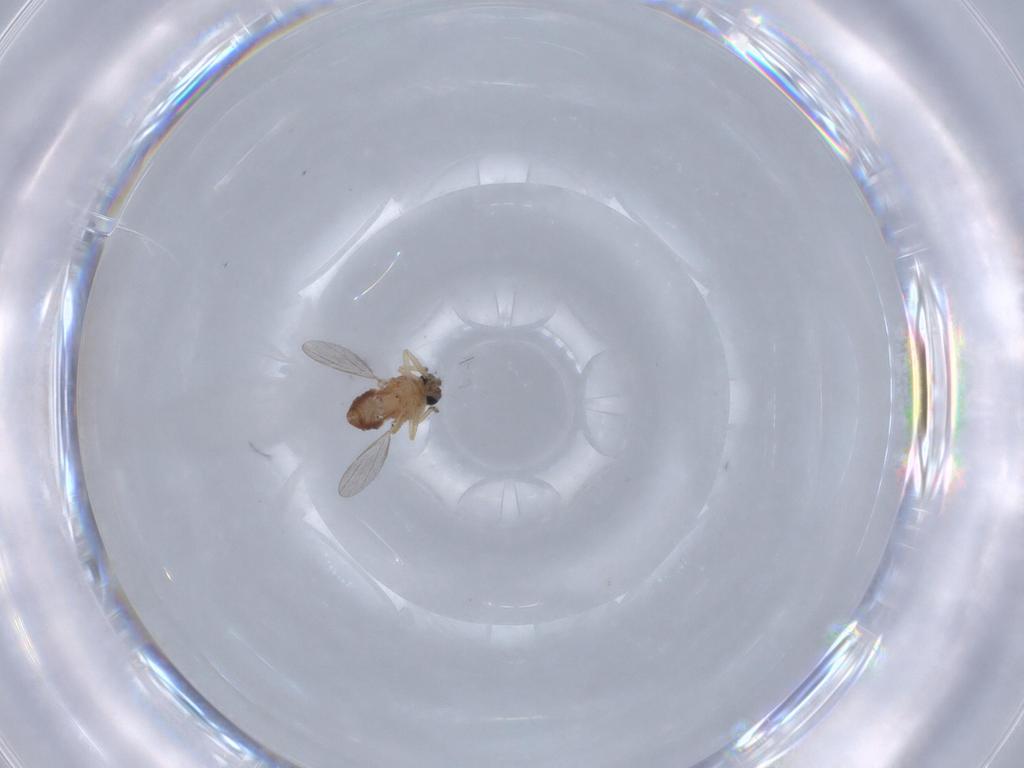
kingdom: Animalia
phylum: Arthropoda
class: Insecta
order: Diptera
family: Ceratopogonidae
